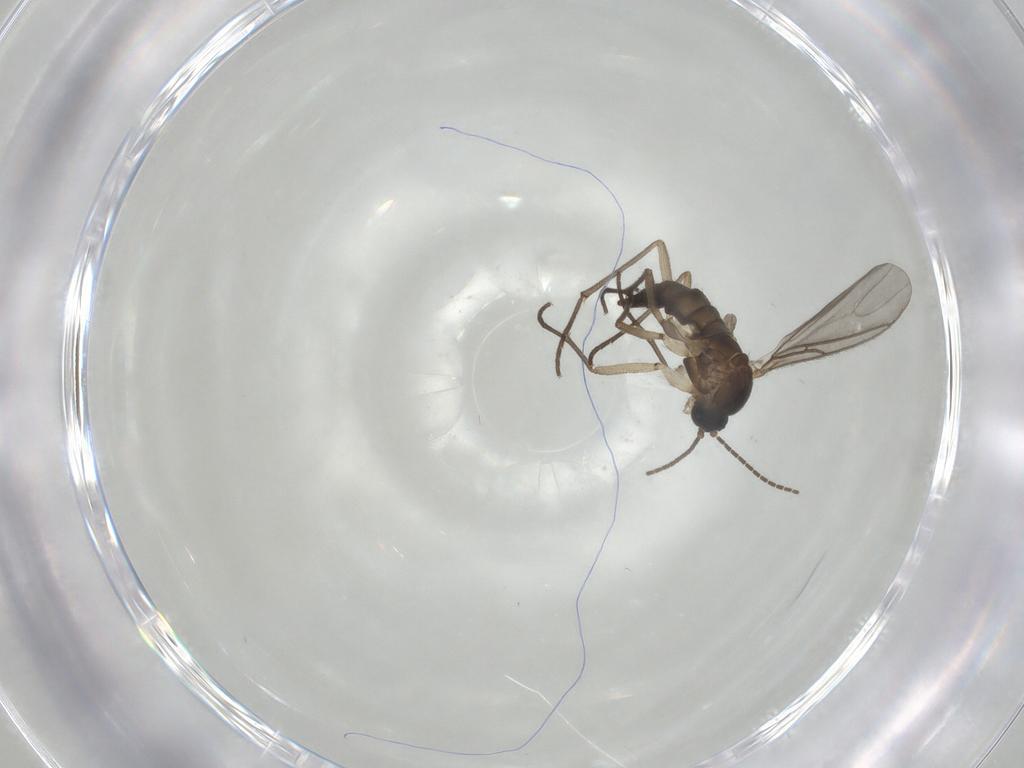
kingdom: Animalia
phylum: Arthropoda
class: Insecta
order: Diptera
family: Sciaridae
